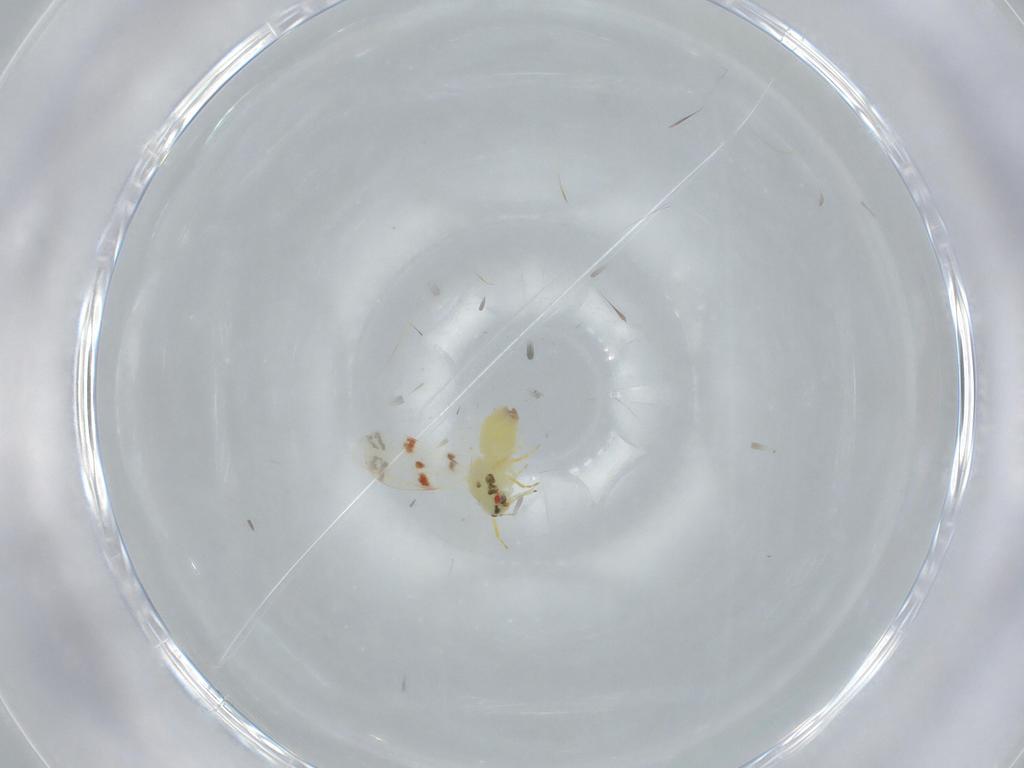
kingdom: Animalia
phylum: Arthropoda
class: Insecta
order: Hemiptera
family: Aleyrodidae
